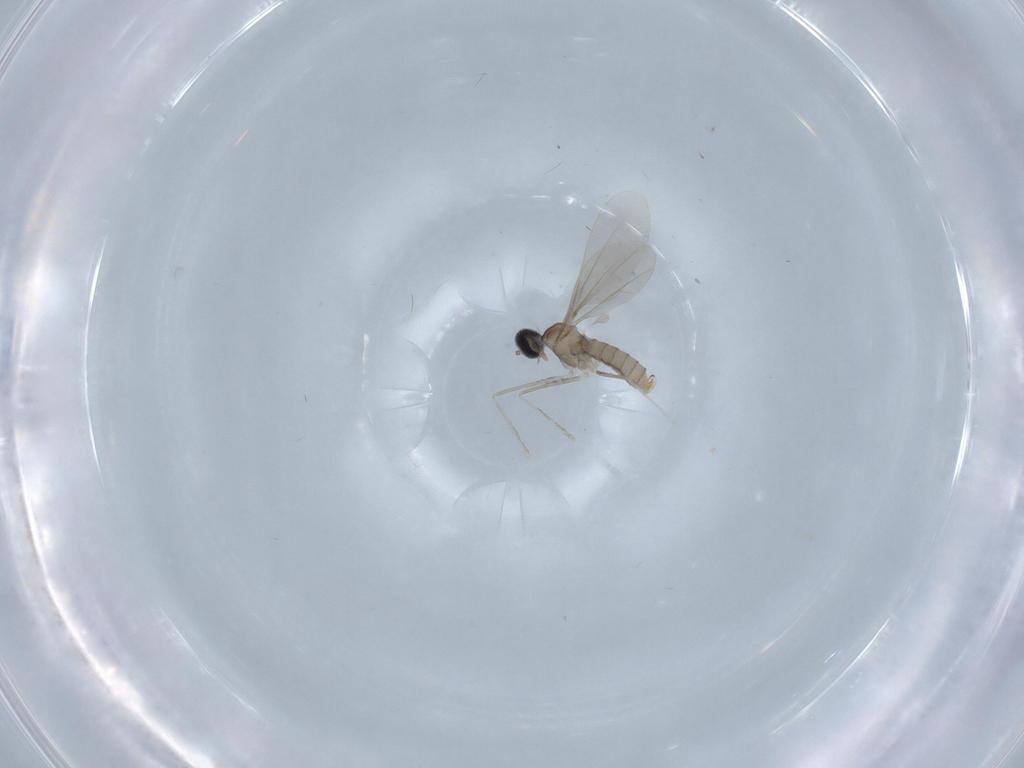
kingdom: Animalia
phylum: Arthropoda
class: Insecta
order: Diptera
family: Cecidomyiidae
